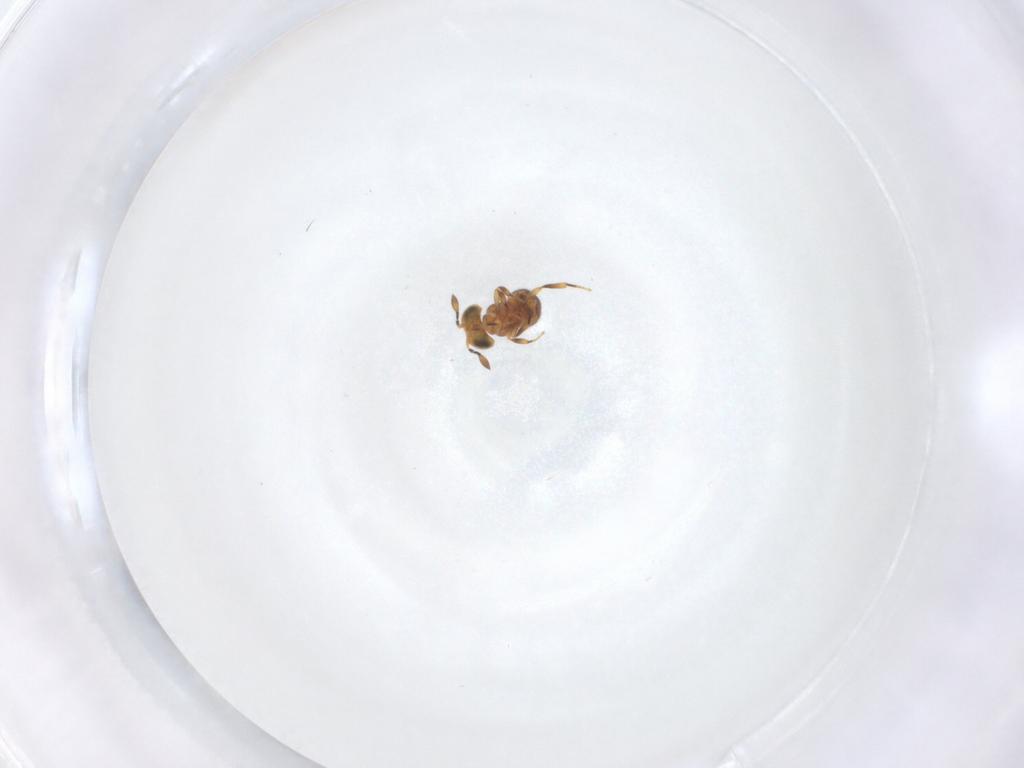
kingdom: Animalia
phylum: Arthropoda
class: Insecta
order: Hymenoptera
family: Scelionidae
